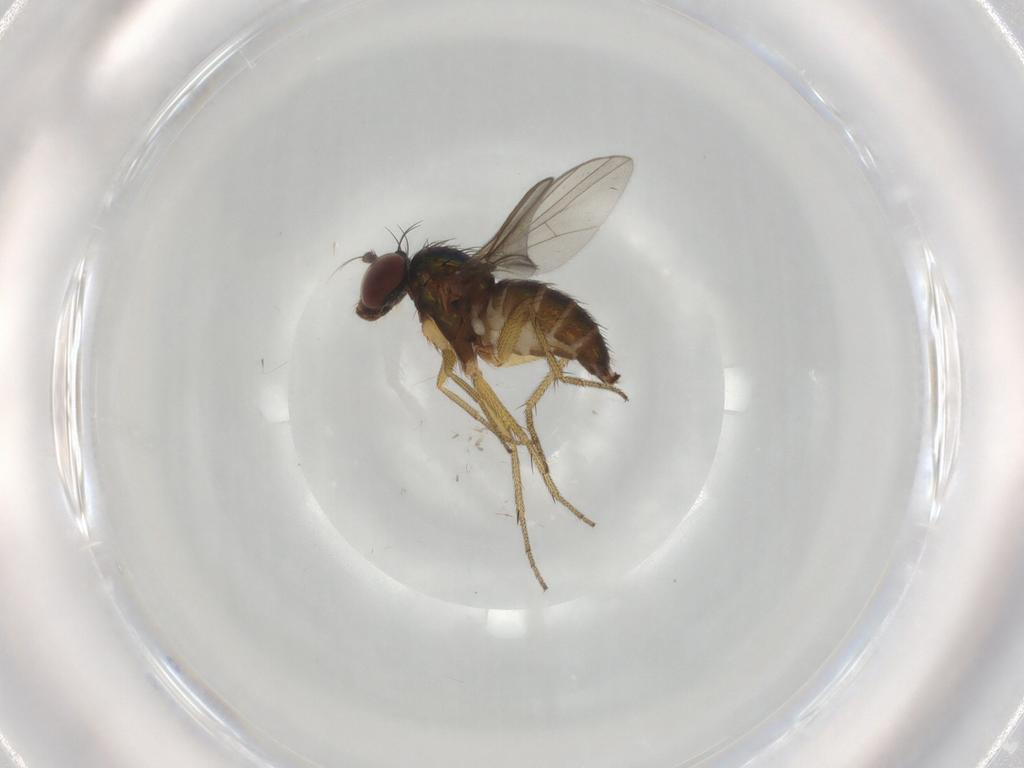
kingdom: Animalia
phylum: Arthropoda
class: Insecta
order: Diptera
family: Dolichopodidae
